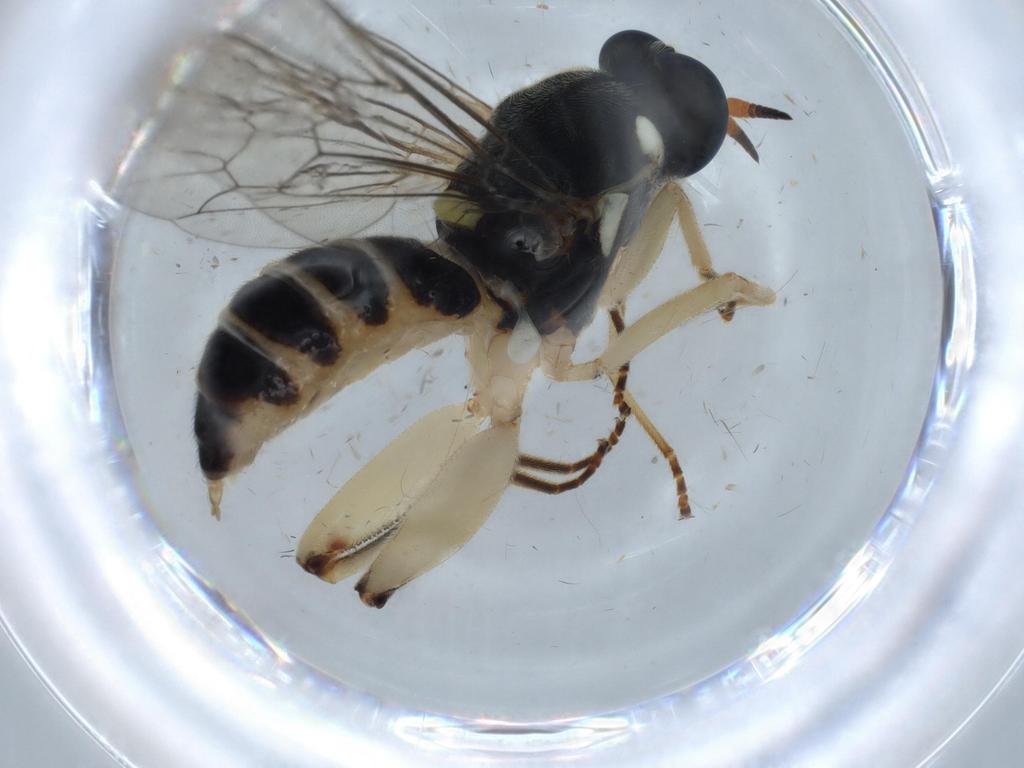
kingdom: Animalia
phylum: Arthropoda
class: Insecta
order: Diptera
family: Sciaridae
